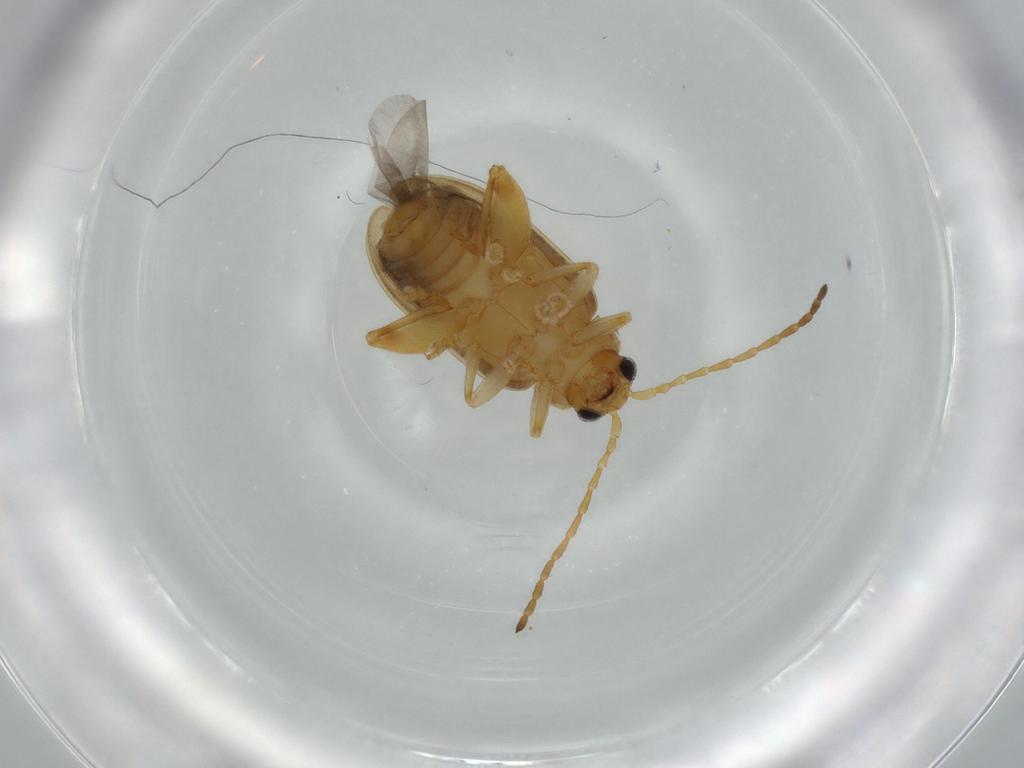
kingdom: Animalia
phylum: Arthropoda
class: Insecta
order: Coleoptera
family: Chrysomelidae
